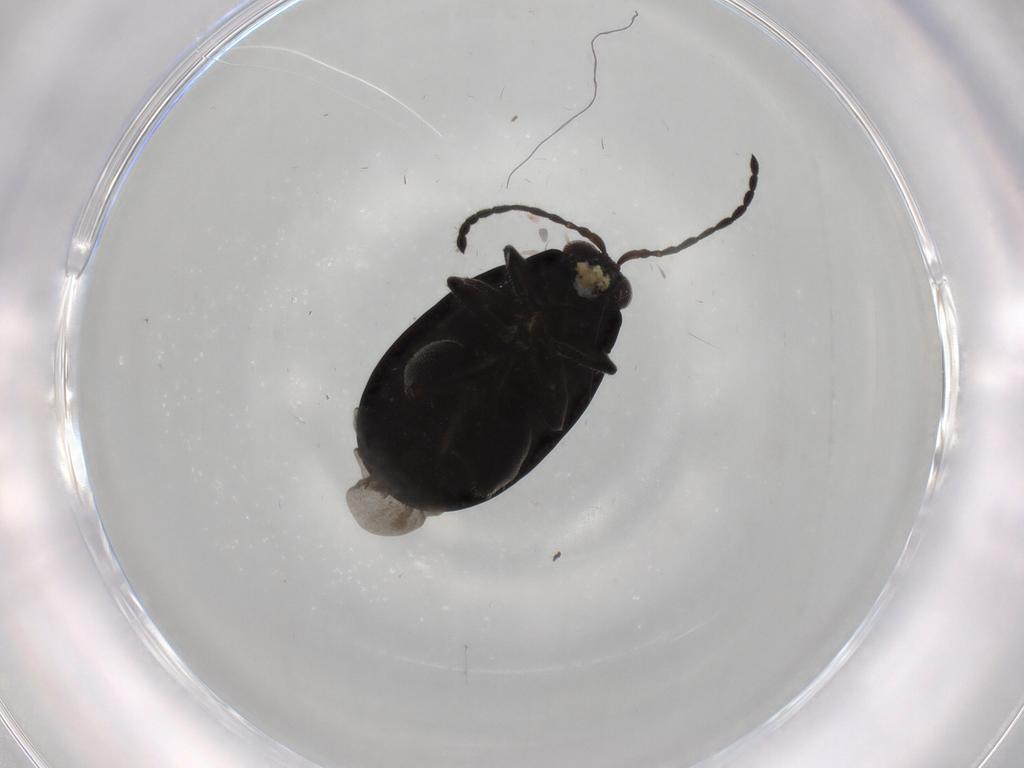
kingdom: Animalia
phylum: Arthropoda
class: Insecta
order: Coleoptera
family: Chrysomelidae
